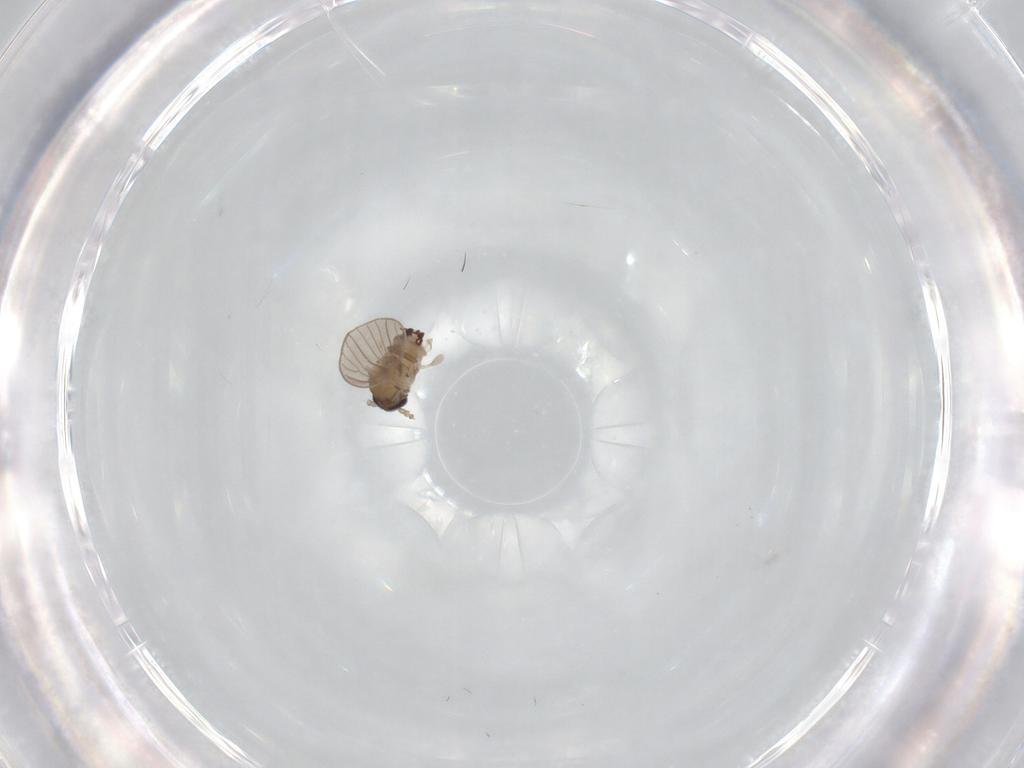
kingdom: Animalia
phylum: Arthropoda
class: Insecta
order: Diptera
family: Psychodidae
